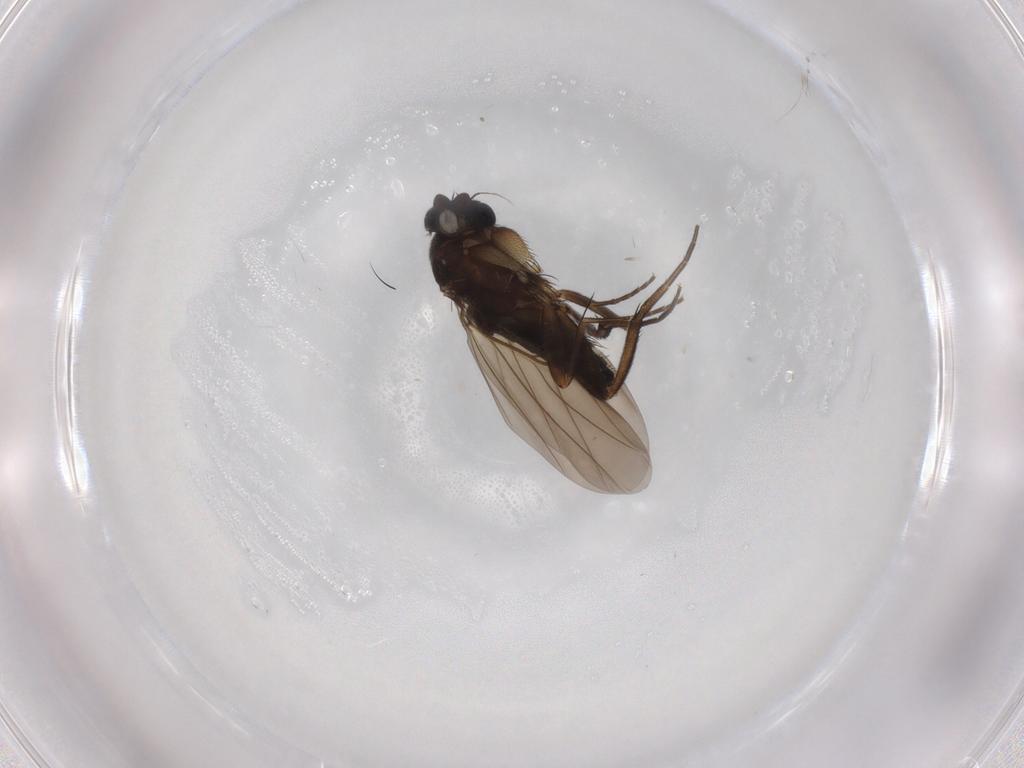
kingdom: Animalia
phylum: Arthropoda
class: Insecta
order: Diptera
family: Phoridae
